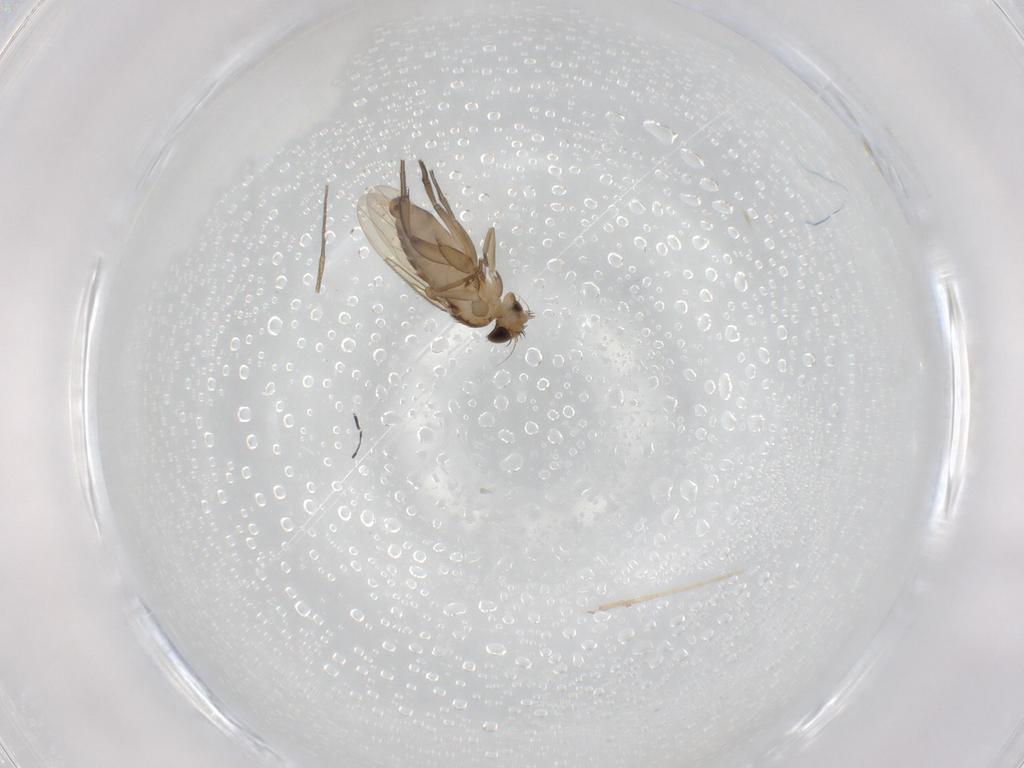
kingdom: Animalia
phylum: Arthropoda
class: Insecta
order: Diptera
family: Phoridae
